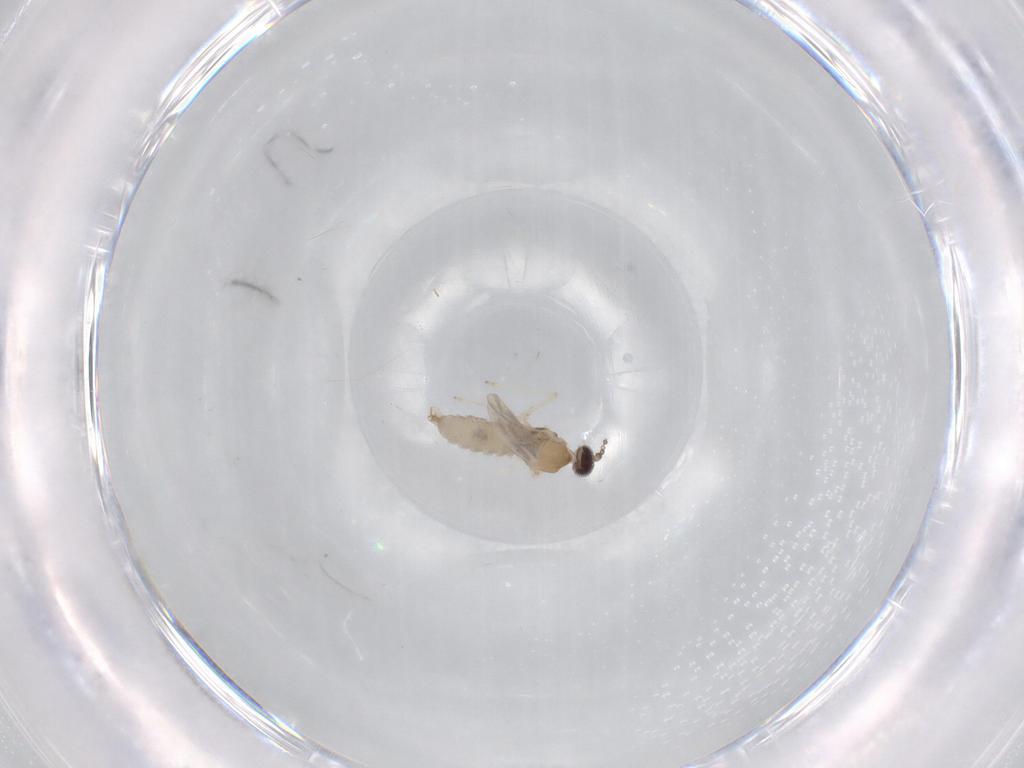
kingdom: Animalia
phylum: Arthropoda
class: Insecta
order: Diptera
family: Cecidomyiidae
